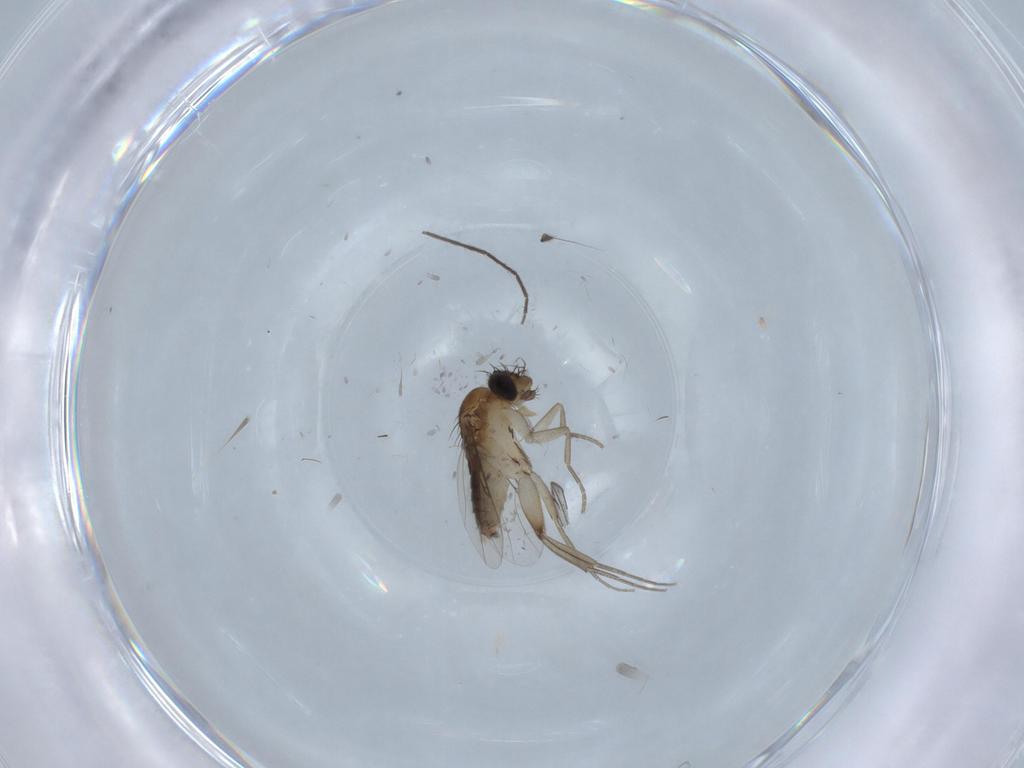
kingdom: Animalia
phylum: Arthropoda
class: Insecta
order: Diptera
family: Phoridae
